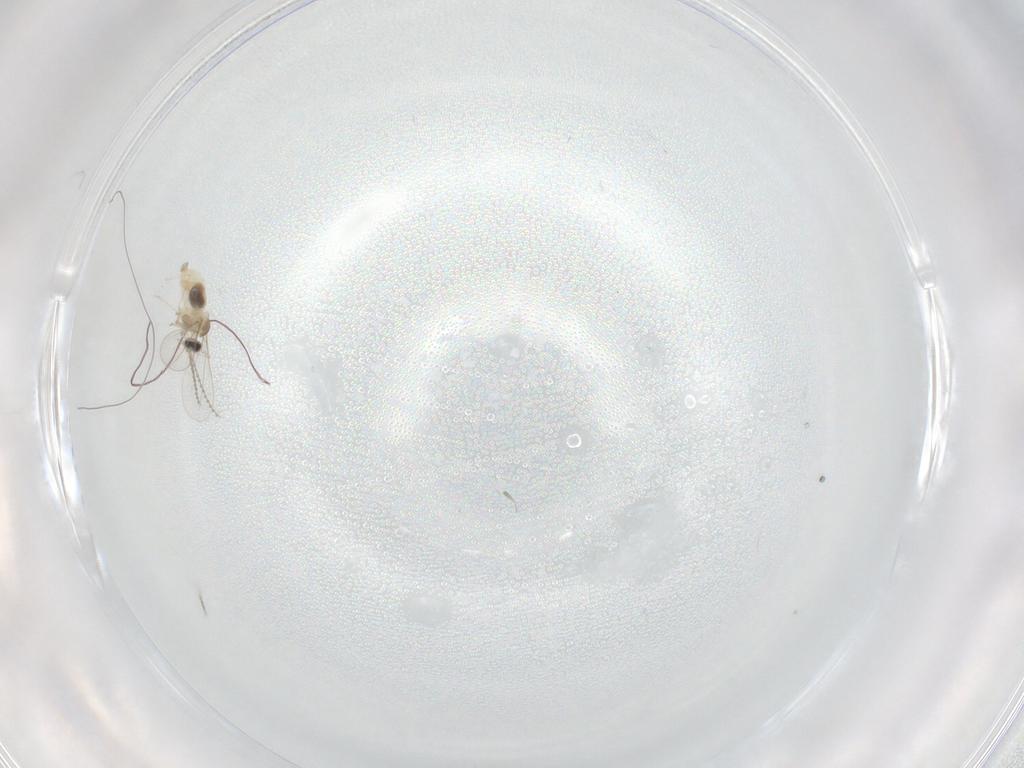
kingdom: Animalia
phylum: Arthropoda
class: Insecta
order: Diptera
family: Cecidomyiidae
